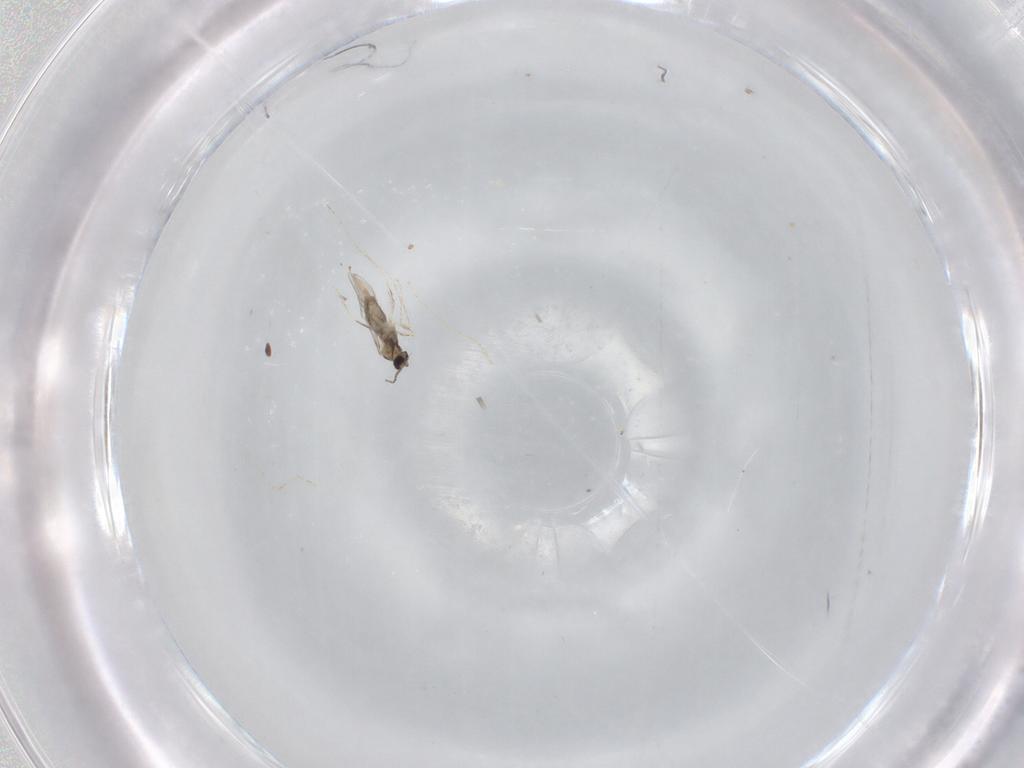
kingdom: Animalia
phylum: Arthropoda
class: Insecta
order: Diptera
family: Cecidomyiidae
